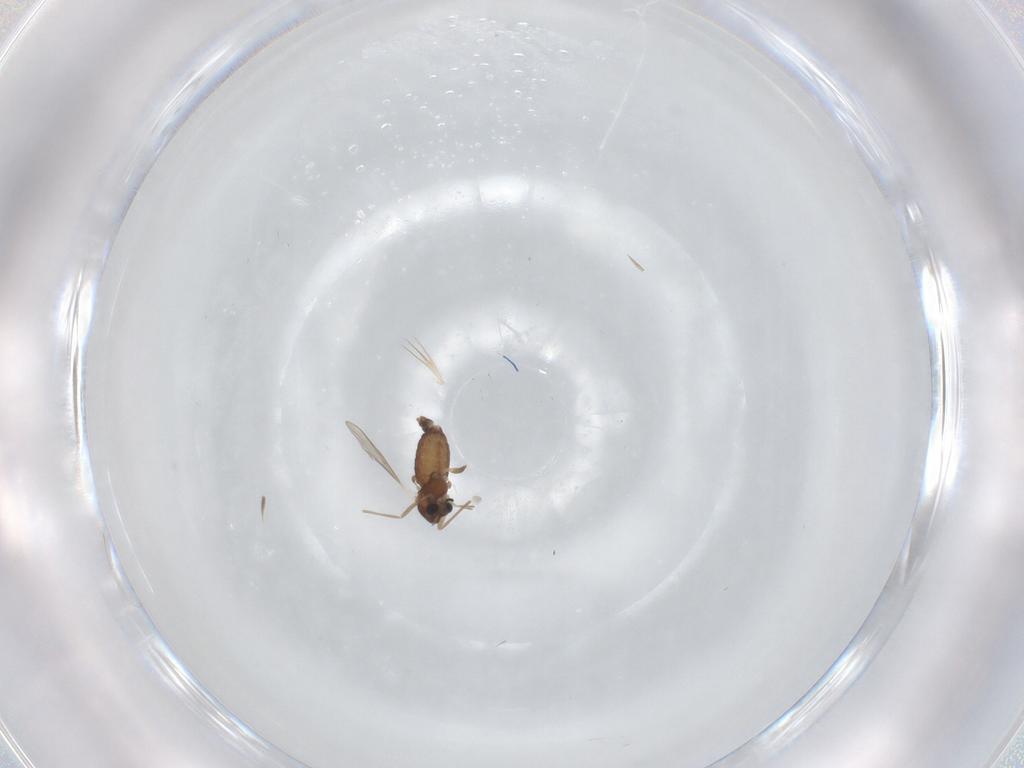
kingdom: Animalia
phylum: Arthropoda
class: Insecta
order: Diptera
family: Chironomidae
